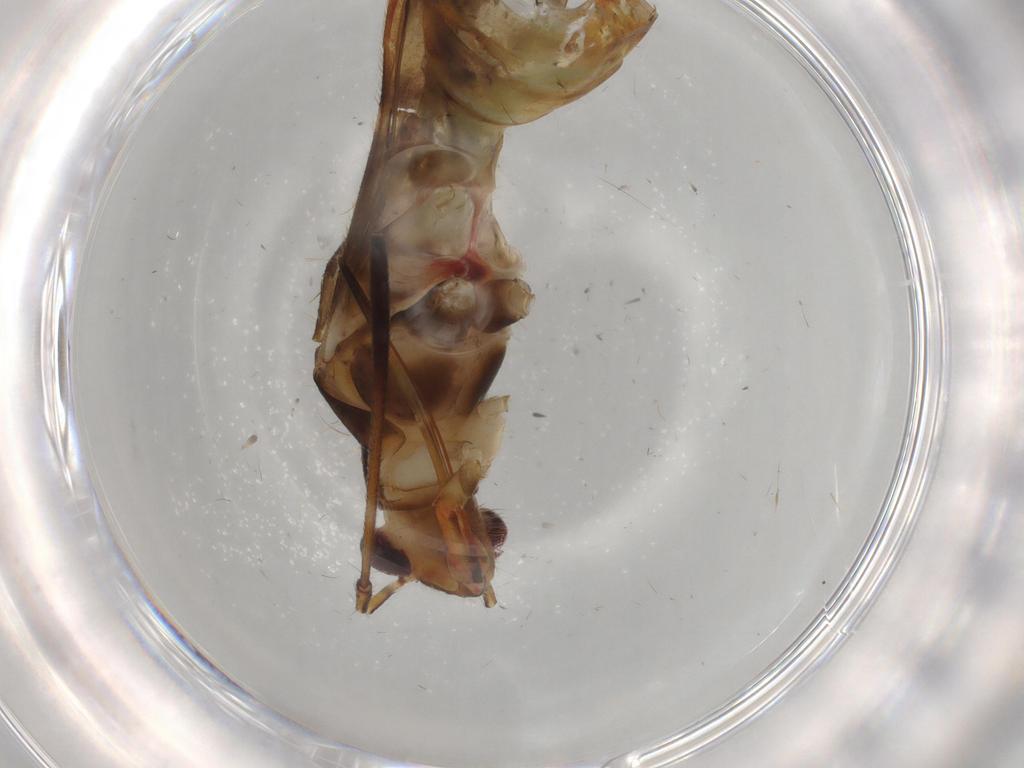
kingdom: Animalia
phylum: Arthropoda
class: Insecta
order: Hemiptera
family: Miridae
